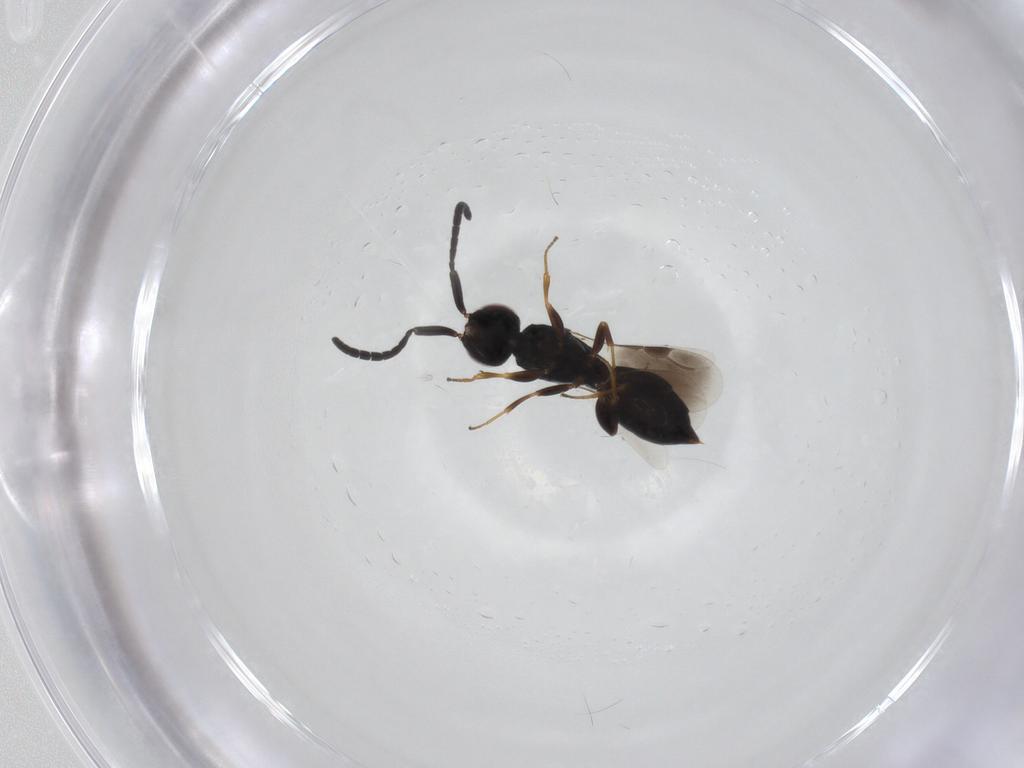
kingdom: Animalia
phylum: Arthropoda
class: Insecta
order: Hymenoptera
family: Megaspilidae
